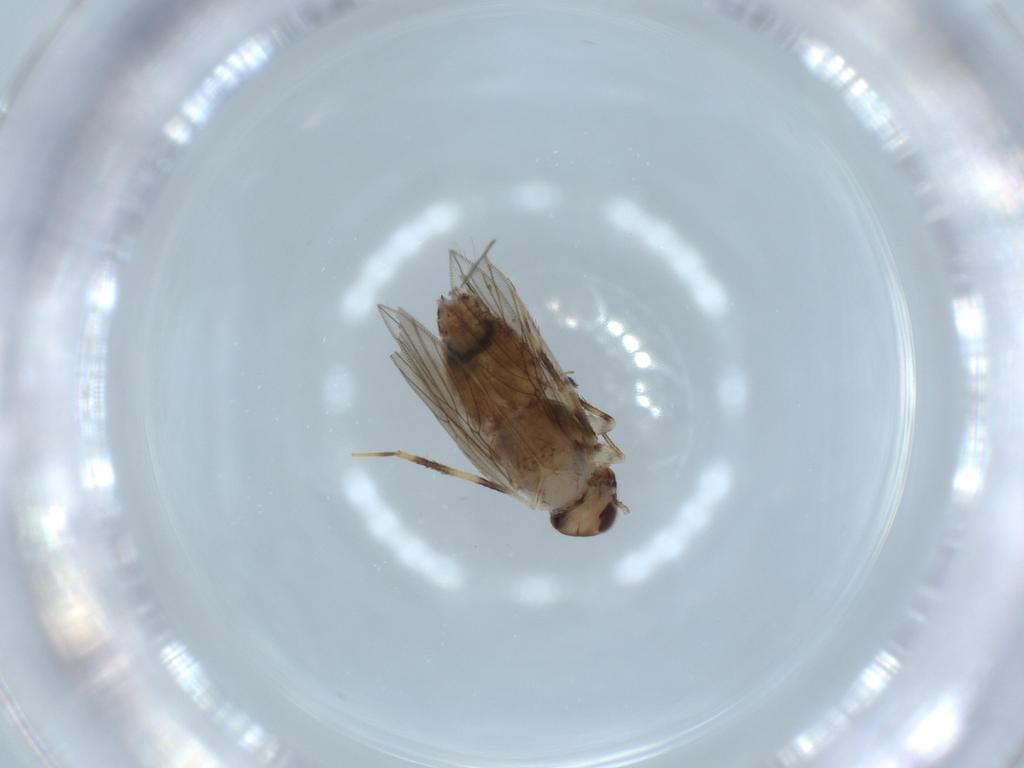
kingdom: Animalia
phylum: Arthropoda
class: Insecta
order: Psocodea
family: Lepidopsocidae
